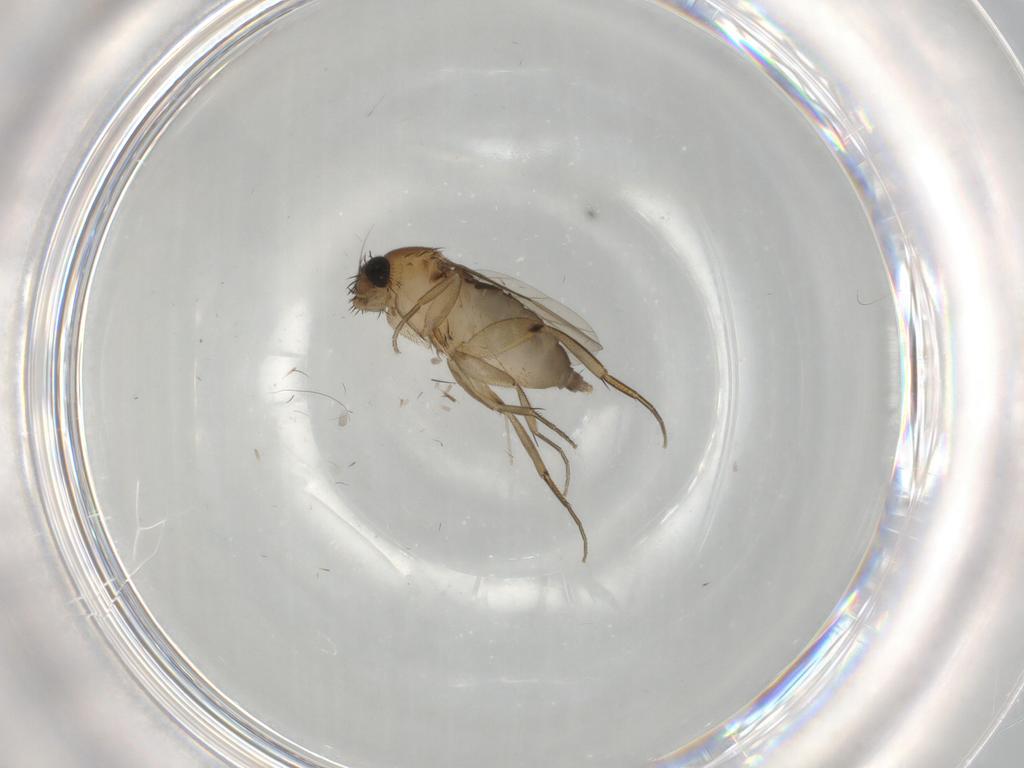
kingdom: Animalia
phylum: Arthropoda
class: Insecta
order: Diptera
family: Phoridae
